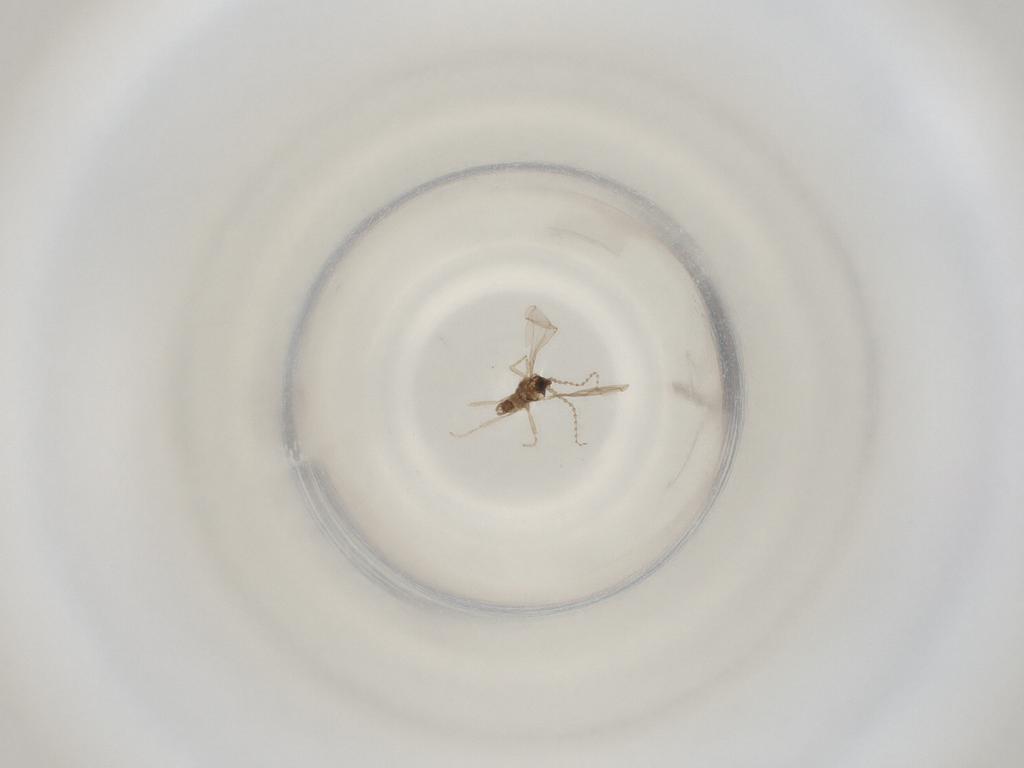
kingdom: Animalia
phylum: Arthropoda
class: Insecta
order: Diptera
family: Cecidomyiidae
